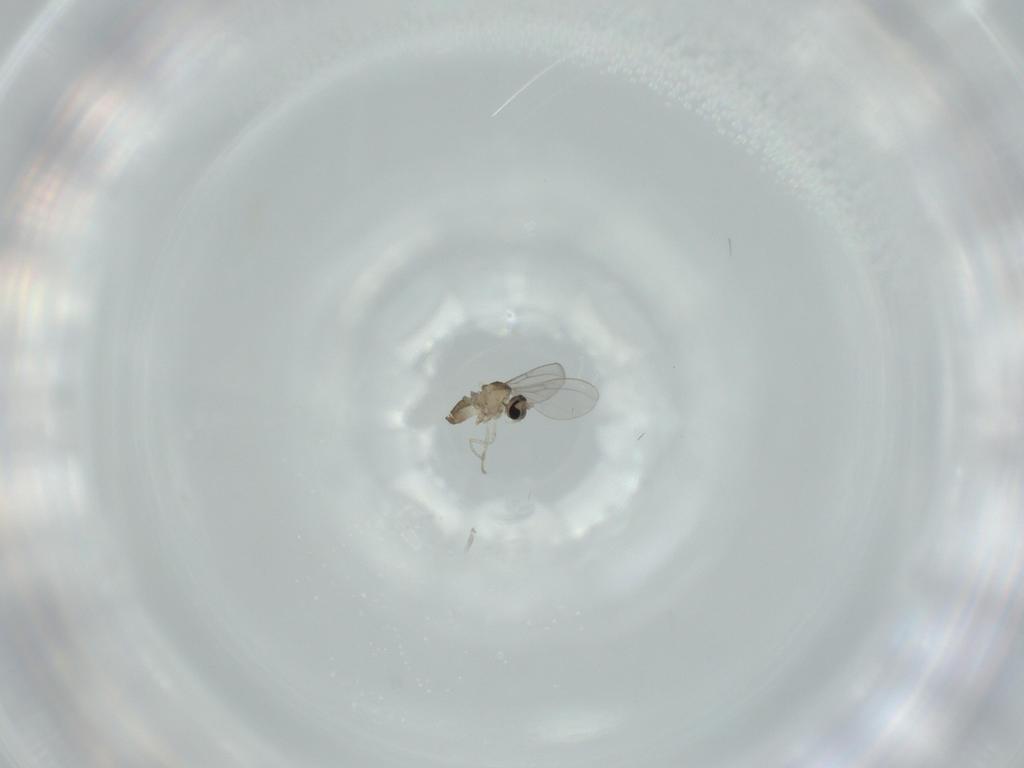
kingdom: Animalia
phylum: Arthropoda
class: Insecta
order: Diptera
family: Cecidomyiidae
